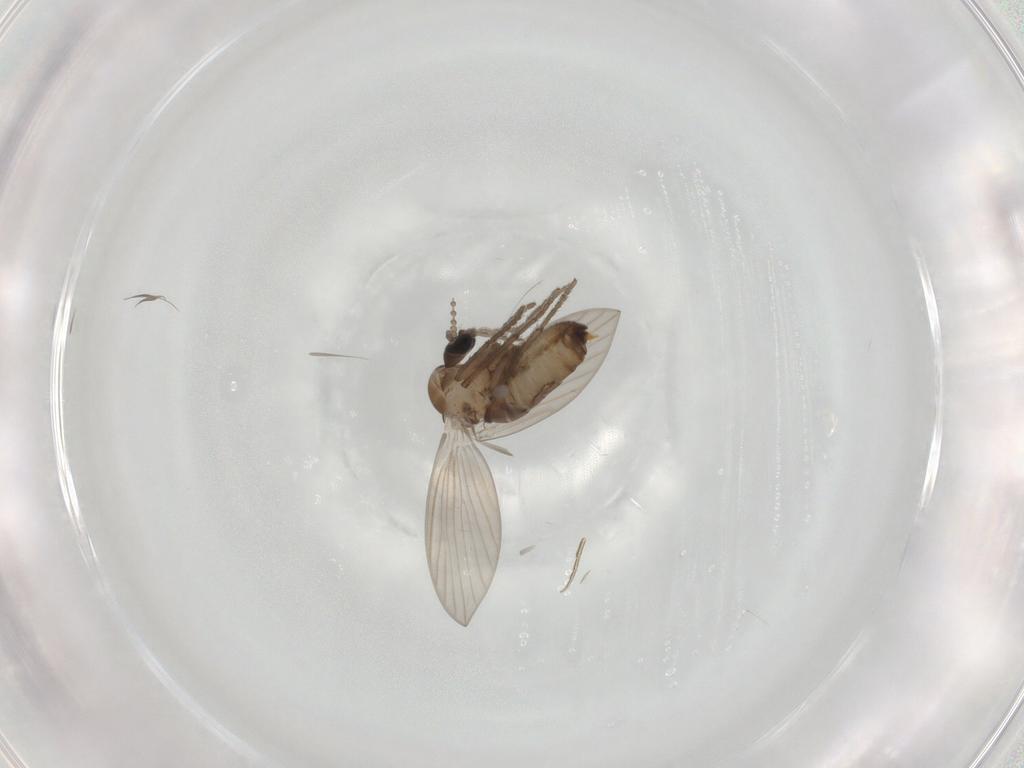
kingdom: Animalia
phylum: Arthropoda
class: Insecta
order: Diptera
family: Psychodidae
